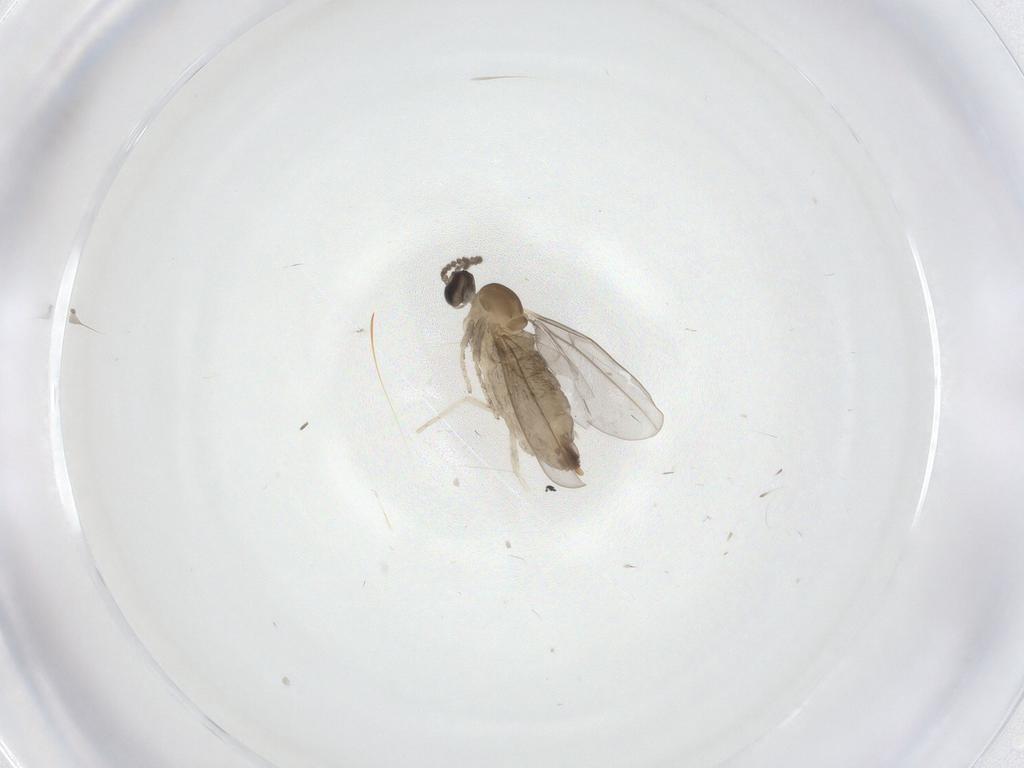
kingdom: Animalia
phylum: Arthropoda
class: Insecta
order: Diptera
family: Cecidomyiidae
